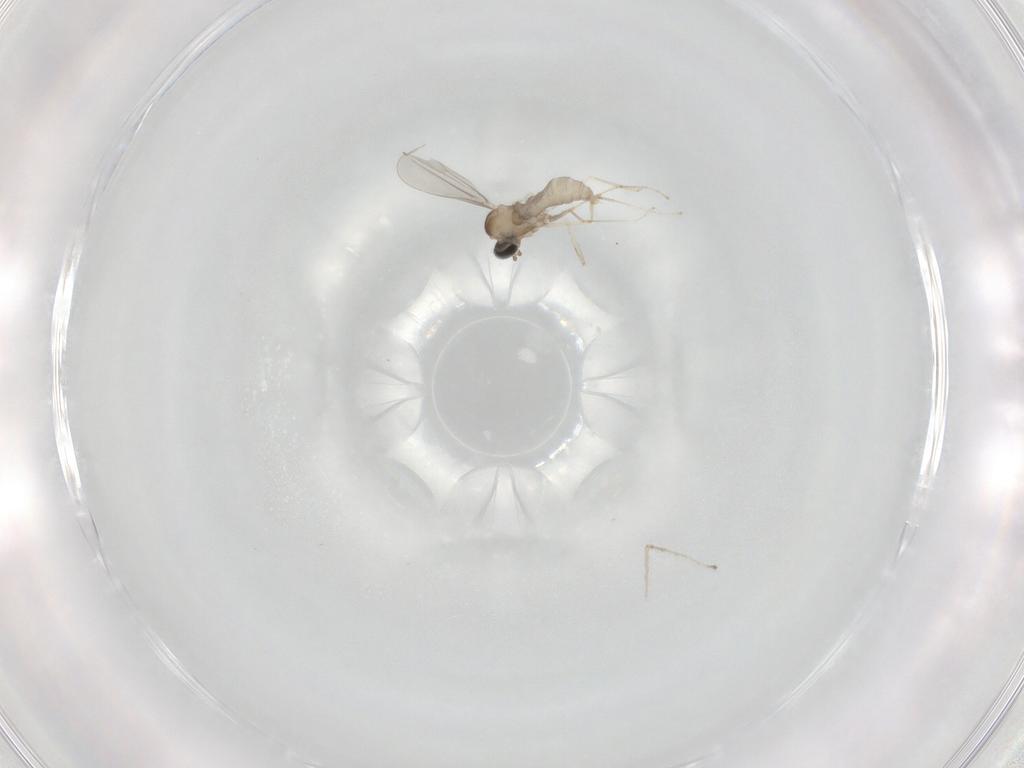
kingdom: Animalia
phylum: Arthropoda
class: Insecta
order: Diptera
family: Cecidomyiidae
